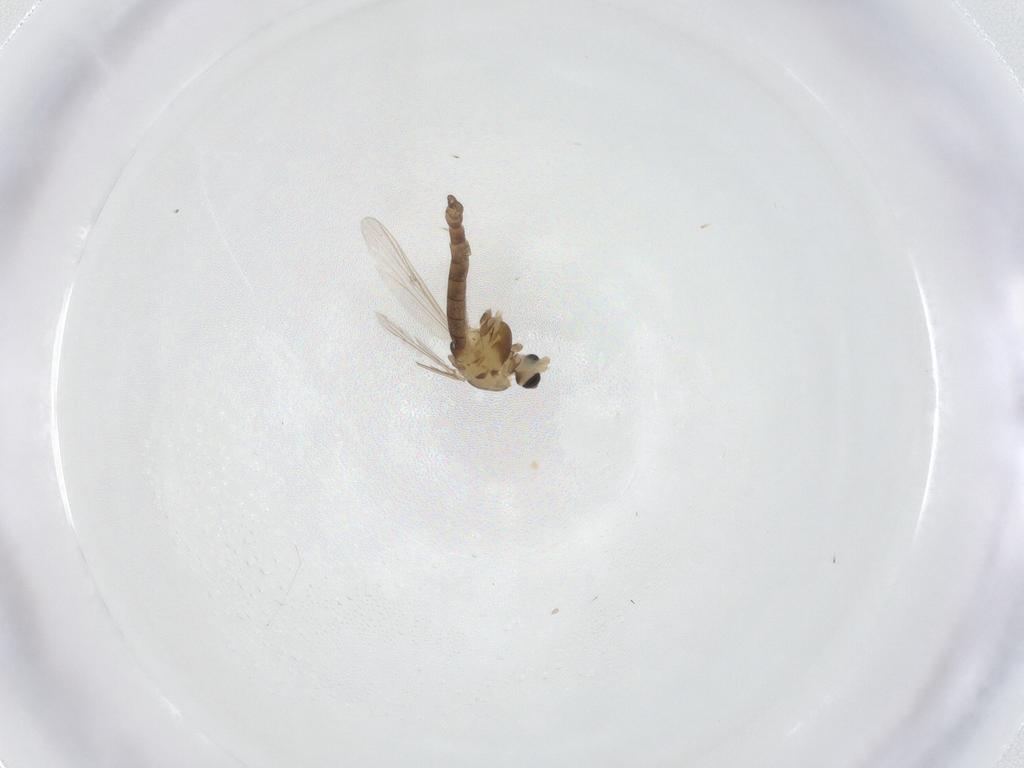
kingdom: Animalia
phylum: Arthropoda
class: Insecta
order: Diptera
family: Chironomidae
